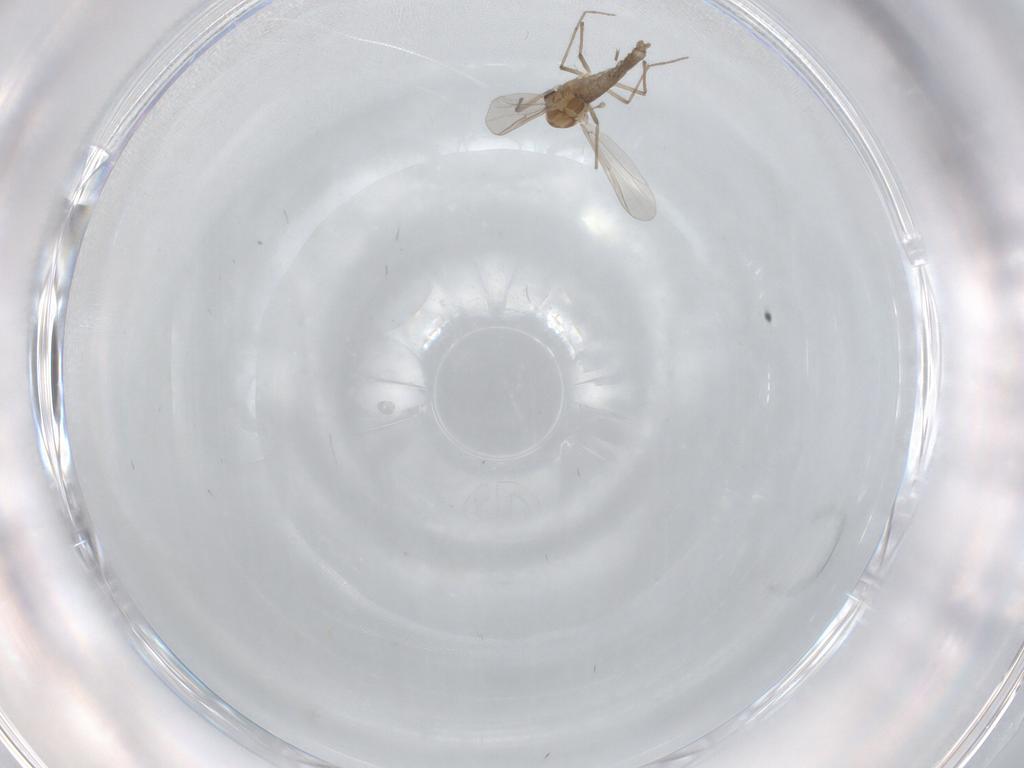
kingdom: Animalia
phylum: Arthropoda
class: Insecta
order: Diptera
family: Chironomidae
